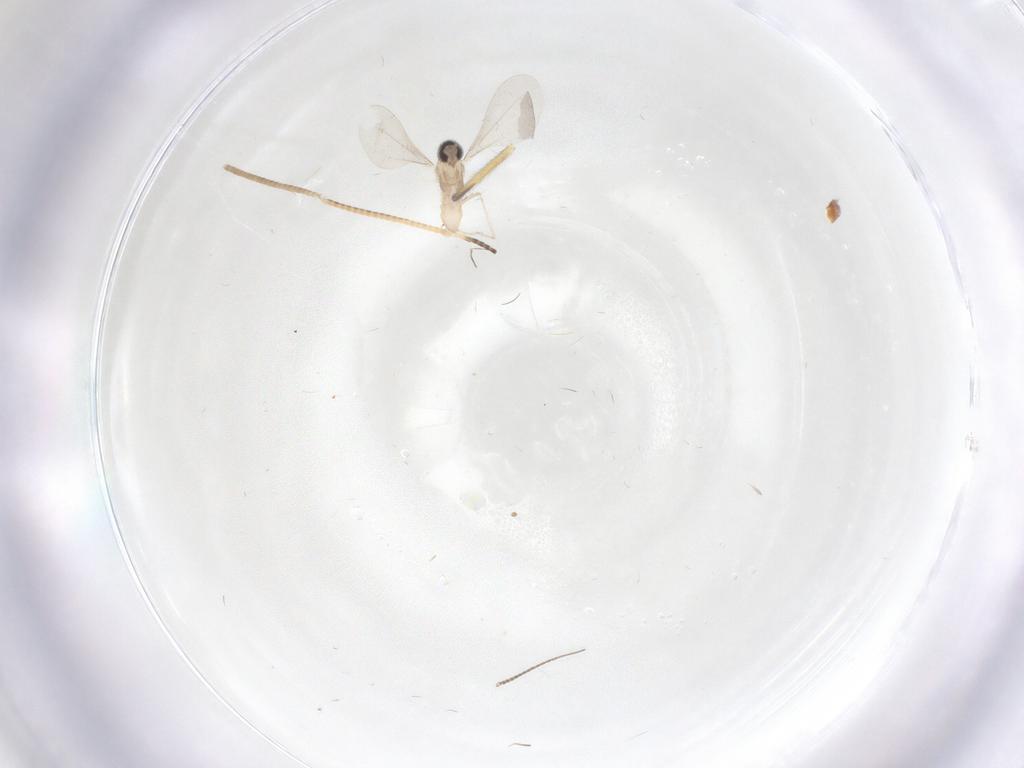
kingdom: Animalia
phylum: Arthropoda
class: Insecta
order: Diptera
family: Cecidomyiidae
